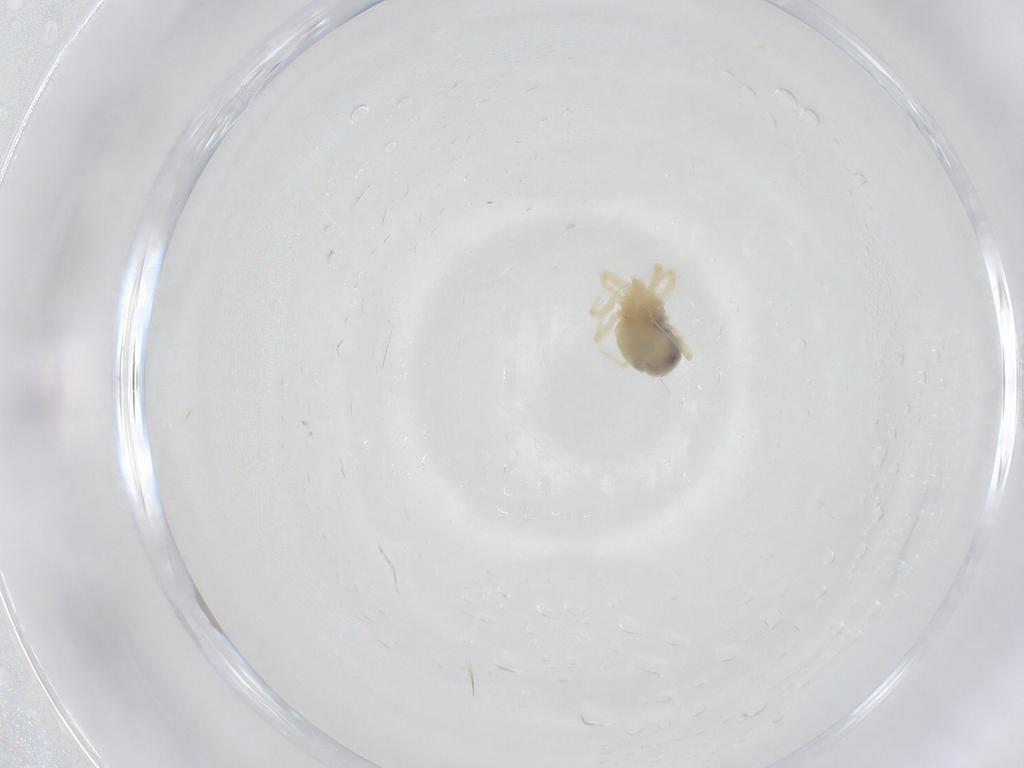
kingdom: Animalia
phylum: Arthropoda
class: Arachnida
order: Trombidiformes
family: Anystidae
